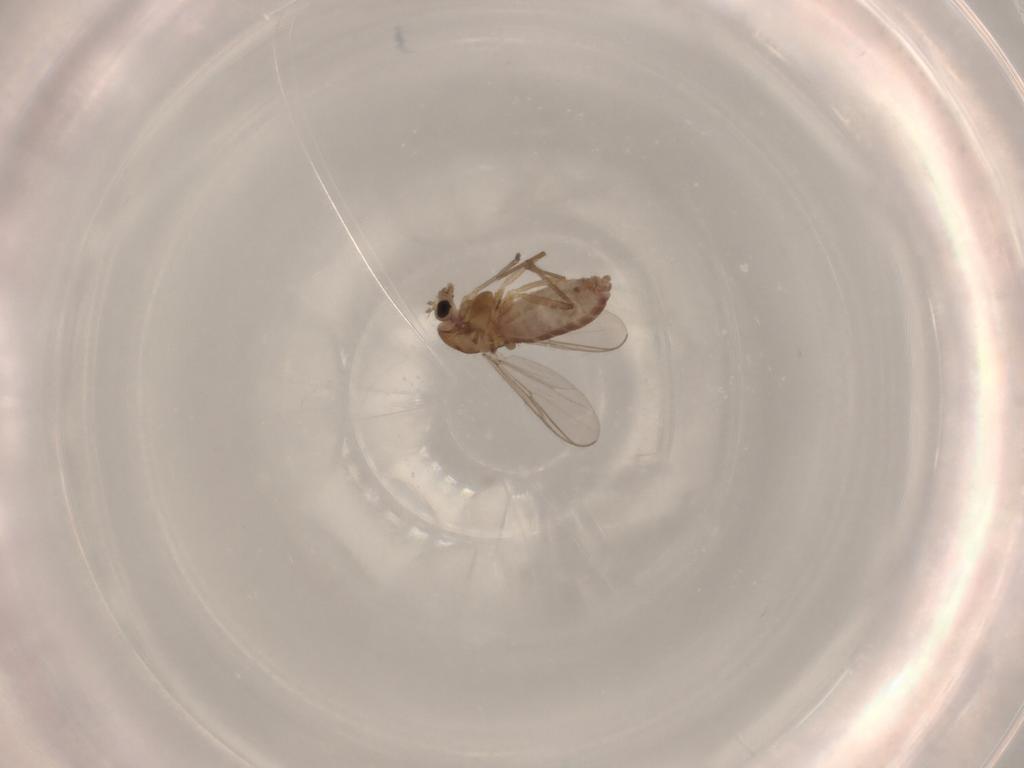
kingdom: Animalia
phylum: Arthropoda
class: Insecta
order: Diptera
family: Chironomidae
